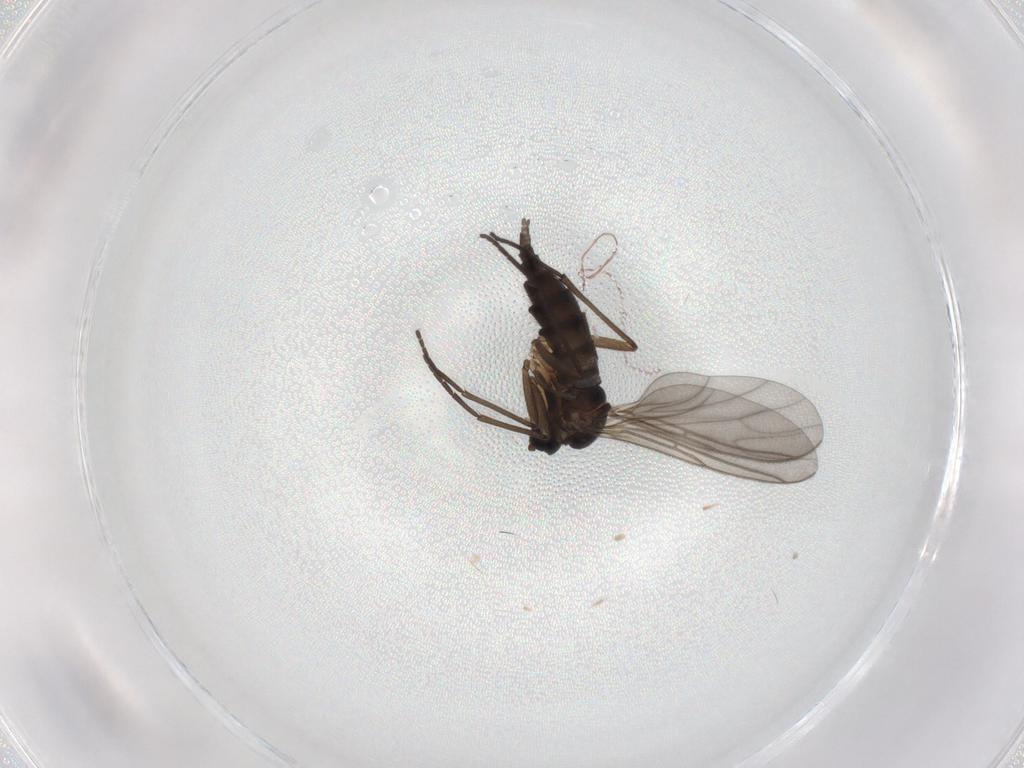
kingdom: Animalia
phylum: Arthropoda
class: Insecta
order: Diptera
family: Sciaridae
